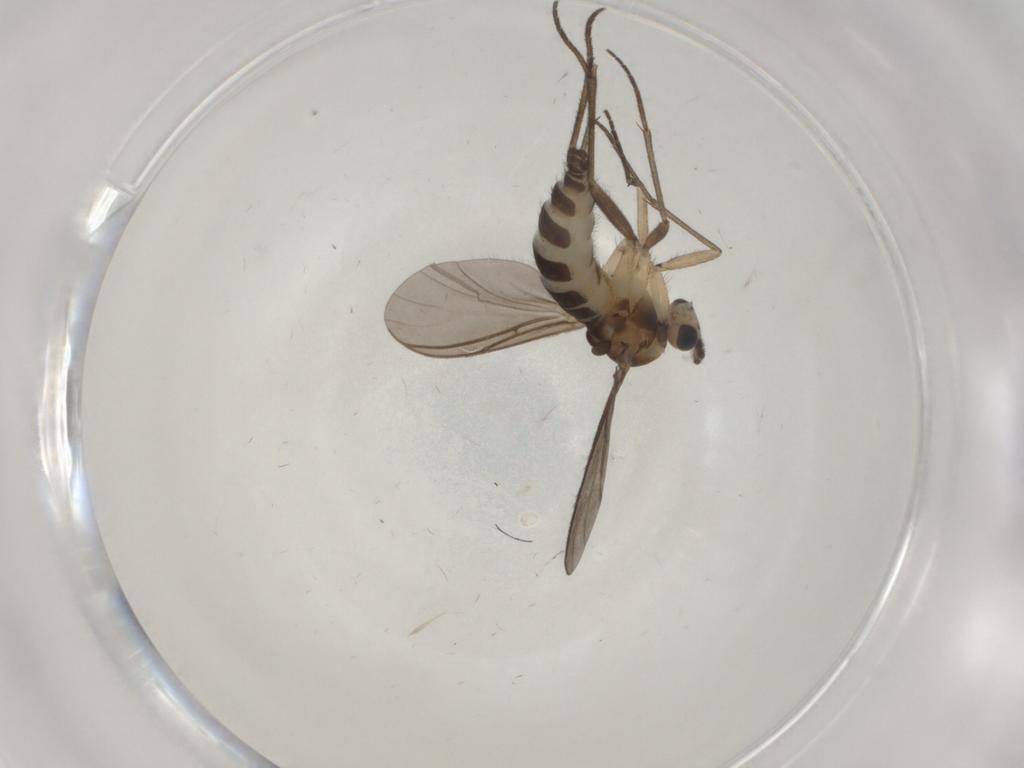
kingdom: Animalia
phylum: Arthropoda
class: Insecta
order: Diptera
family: Sciaridae
